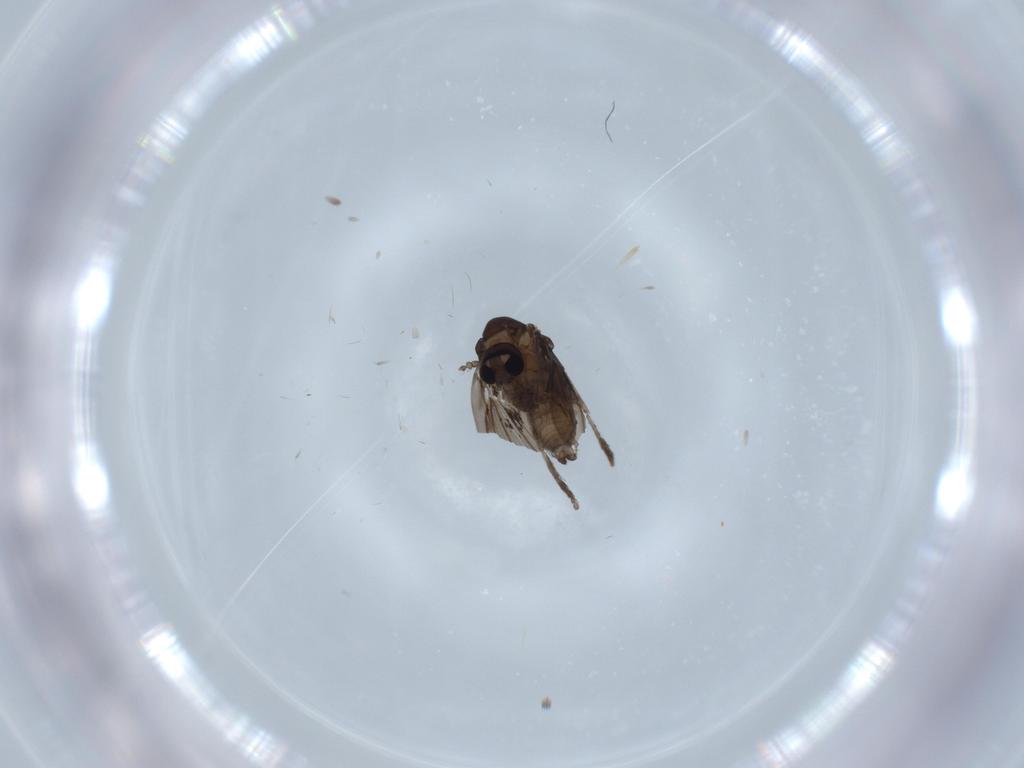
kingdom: Animalia
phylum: Arthropoda
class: Insecta
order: Diptera
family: Psychodidae
